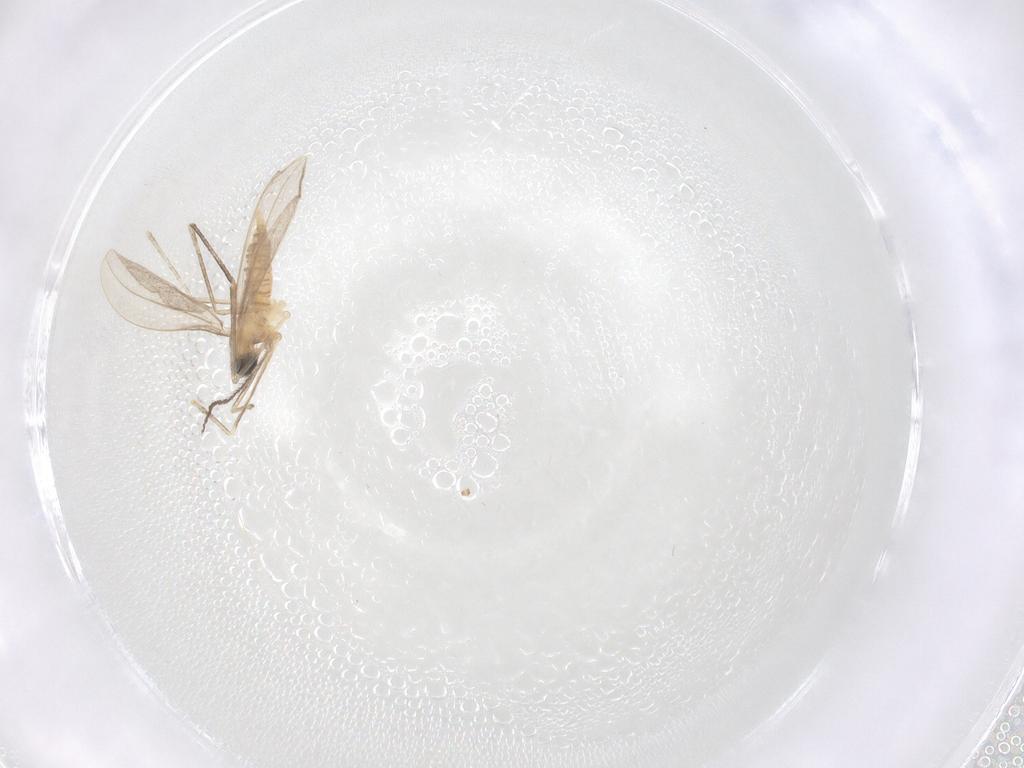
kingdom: Animalia
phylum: Arthropoda
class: Insecta
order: Diptera
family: Cecidomyiidae
